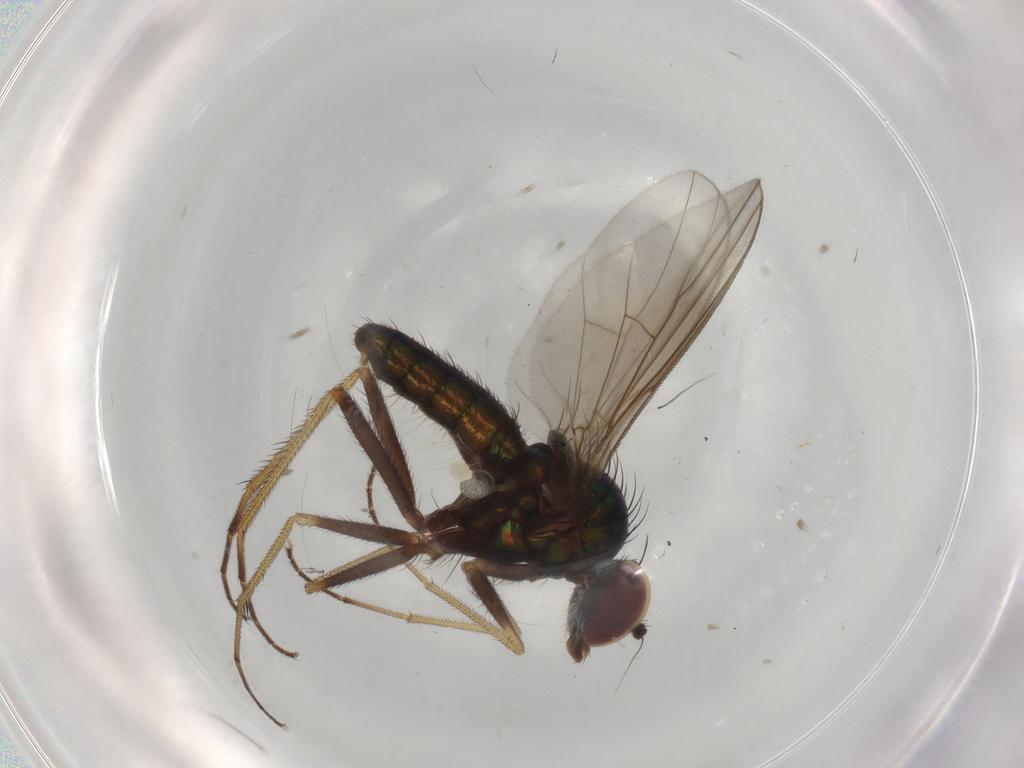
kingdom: Animalia
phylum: Arthropoda
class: Insecta
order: Diptera
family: Dolichopodidae
